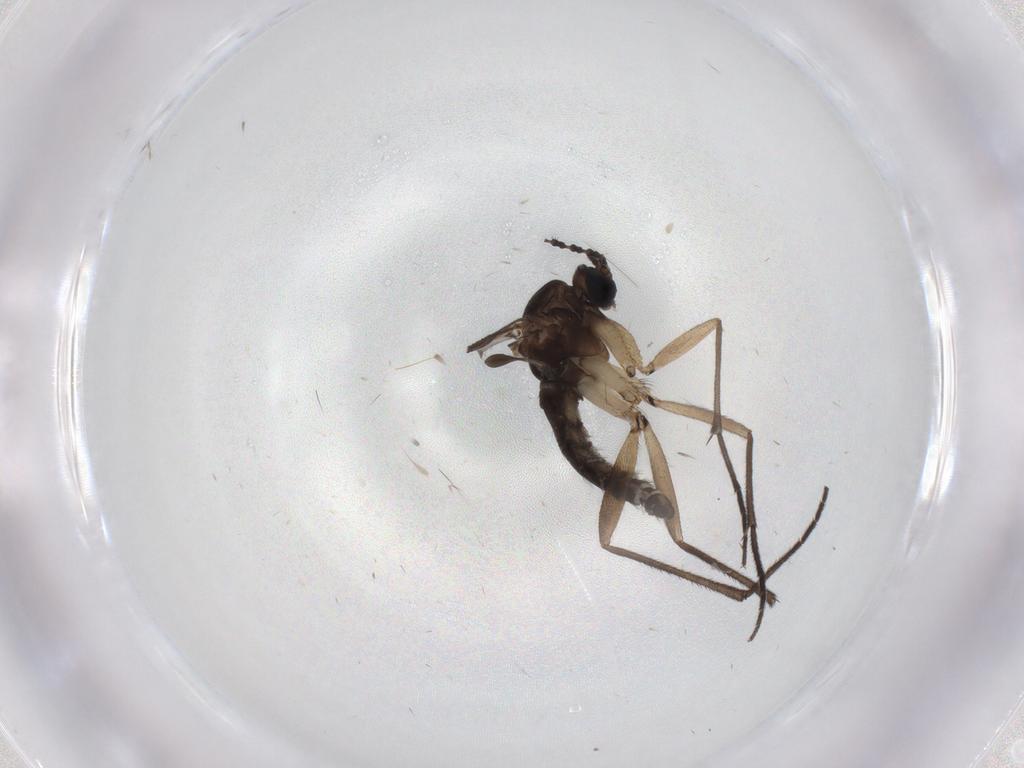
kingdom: Animalia
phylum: Arthropoda
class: Insecta
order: Diptera
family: Sciaridae
